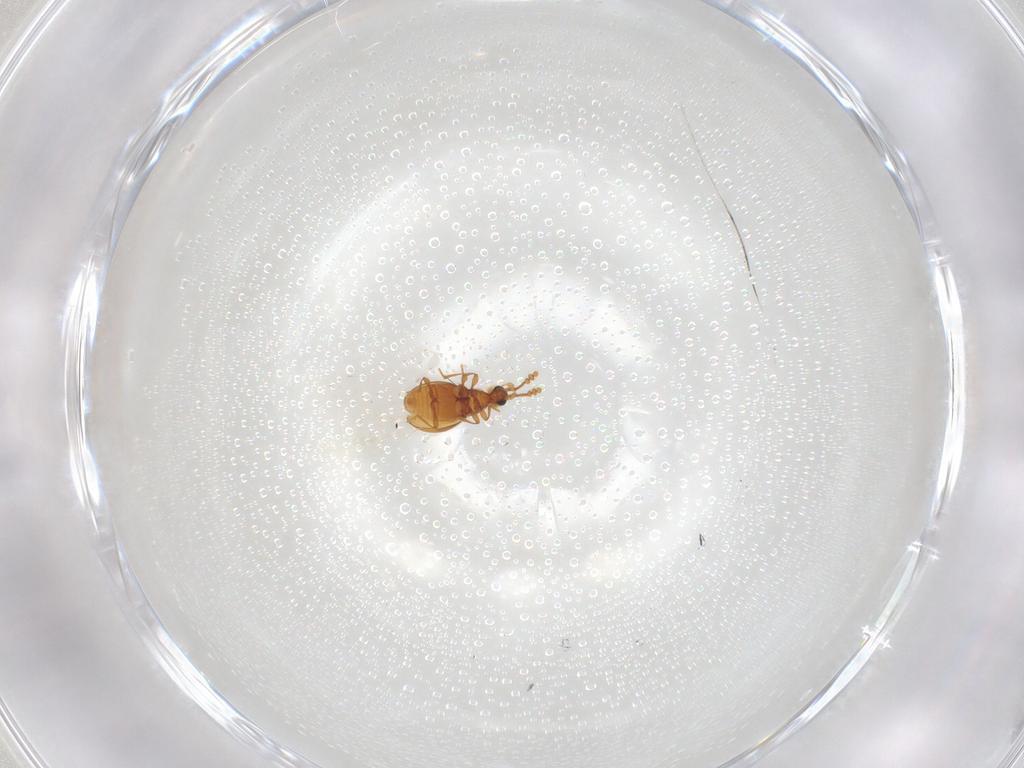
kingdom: Animalia
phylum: Arthropoda
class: Insecta
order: Coleoptera
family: Staphylinidae
